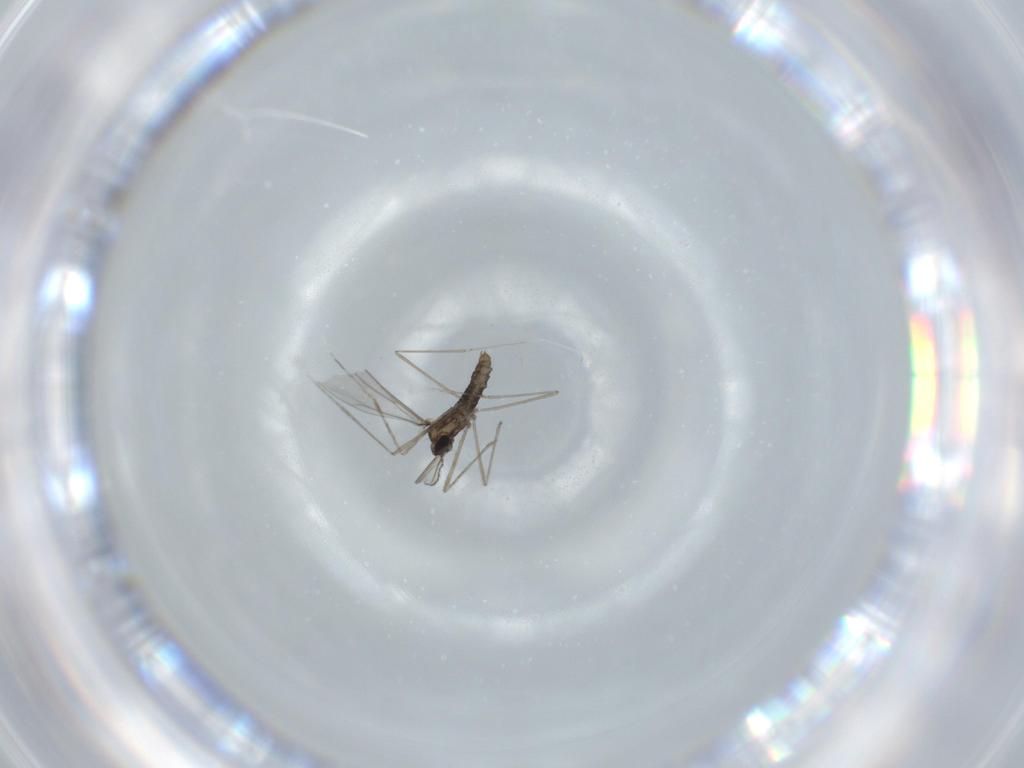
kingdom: Animalia
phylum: Arthropoda
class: Insecta
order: Diptera
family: Cecidomyiidae
